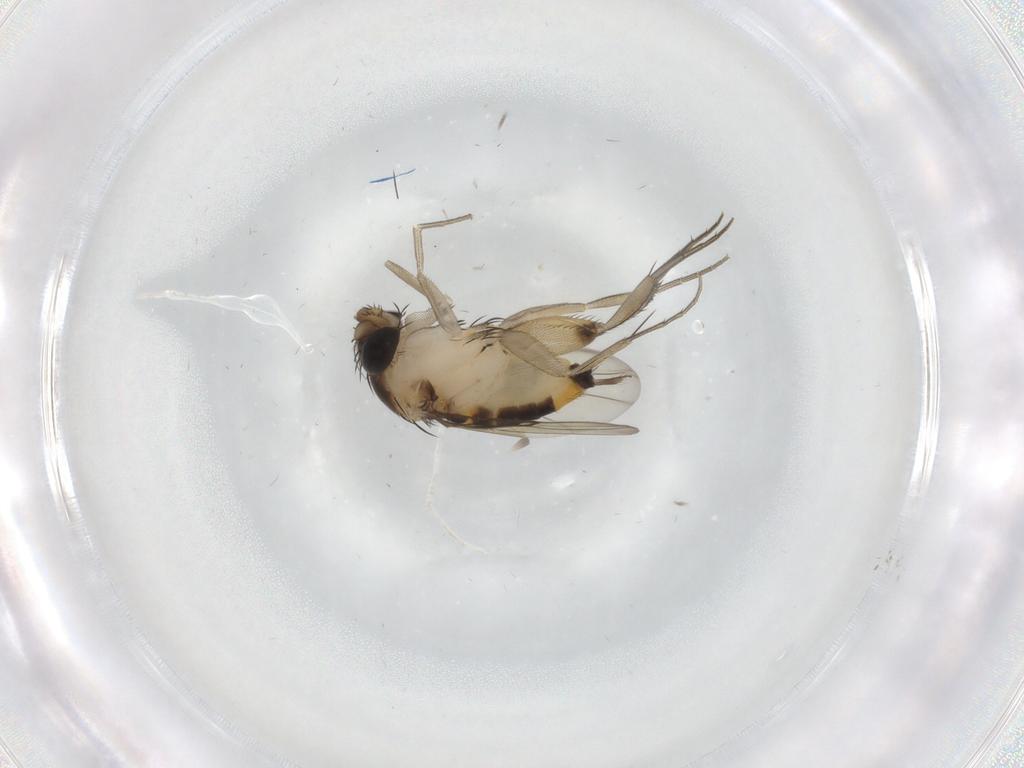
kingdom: Animalia
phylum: Arthropoda
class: Insecta
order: Diptera
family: Phoridae
